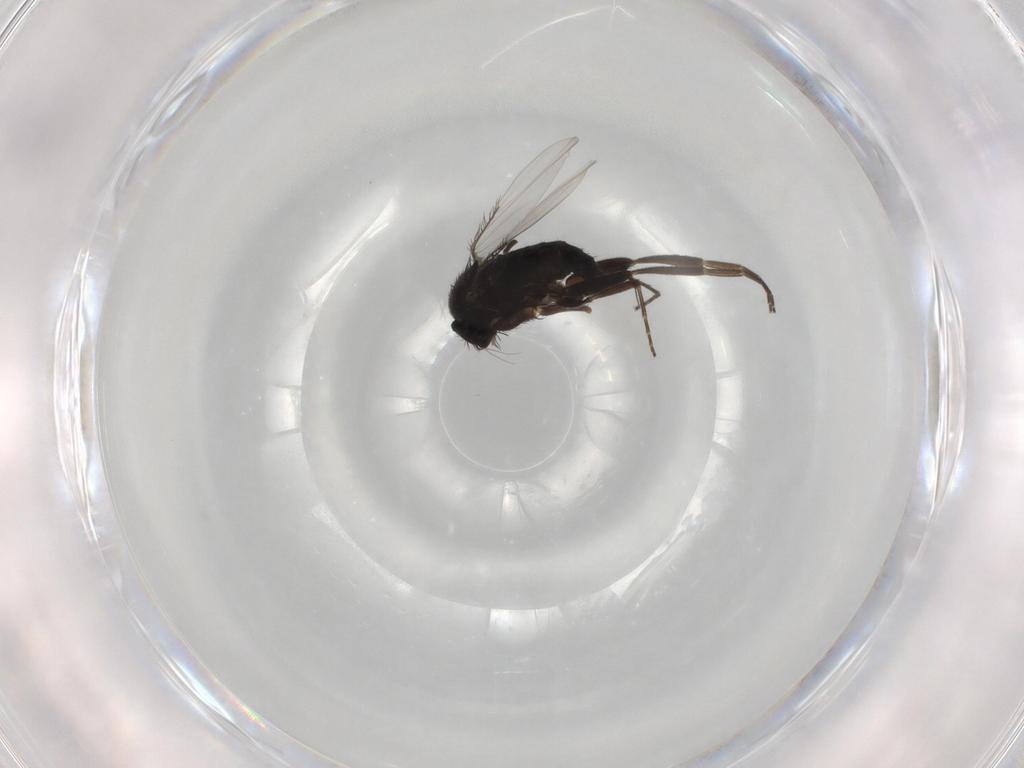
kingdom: Animalia
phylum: Arthropoda
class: Insecta
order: Diptera
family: Phoridae
